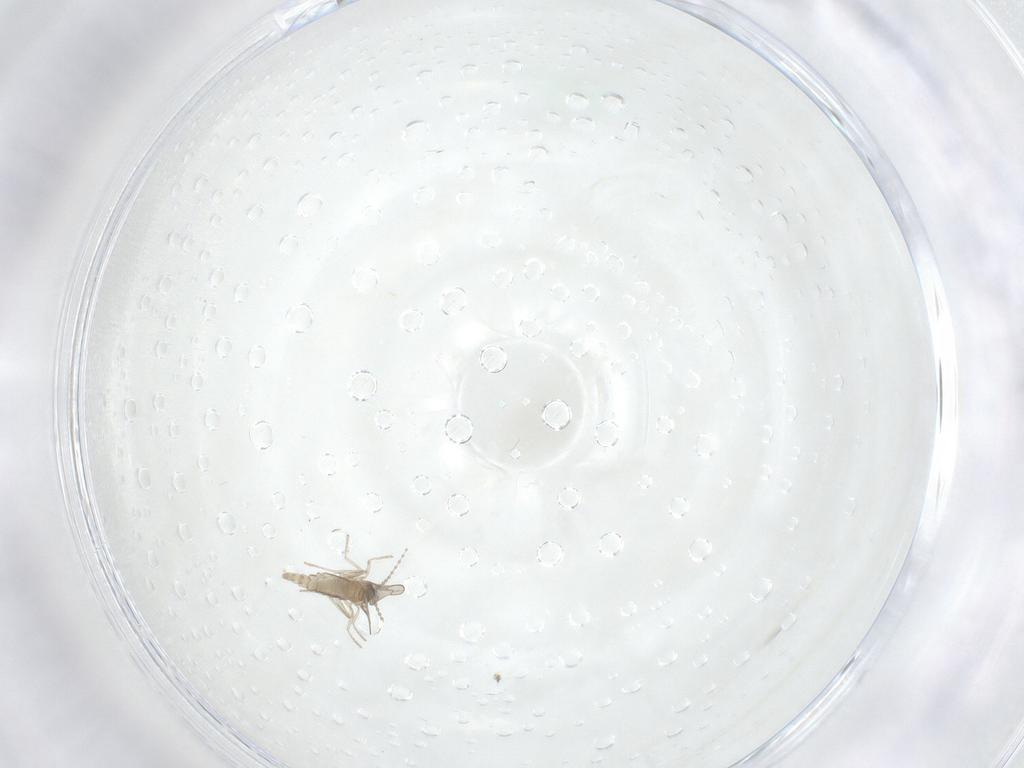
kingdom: Animalia
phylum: Arthropoda
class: Insecta
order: Diptera
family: Cecidomyiidae
